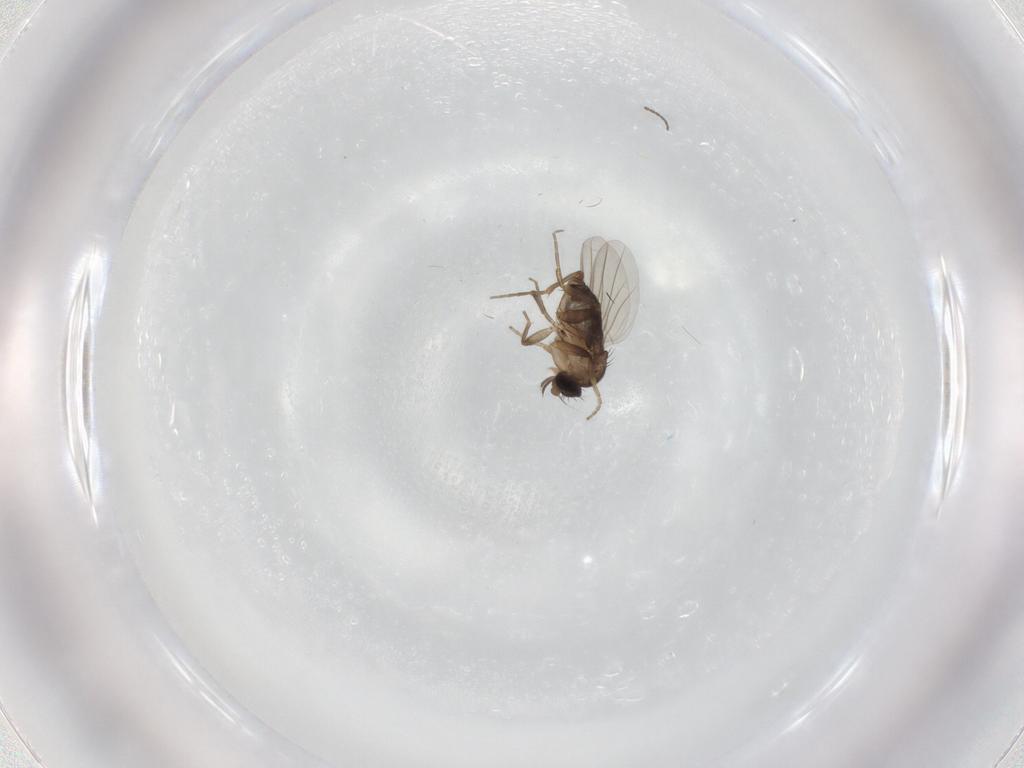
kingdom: Animalia
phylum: Arthropoda
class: Insecta
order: Diptera
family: Cecidomyiidae
